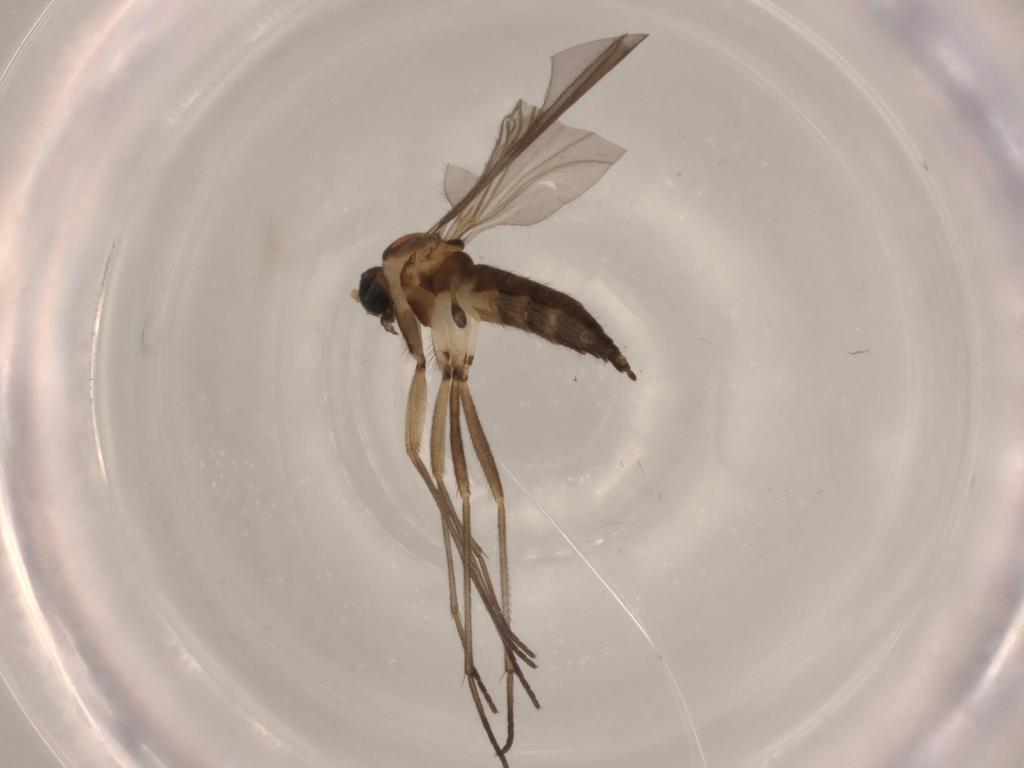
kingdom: Animalia
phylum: Arthropoda
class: Insecta
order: Diptera
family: Sciaridae
